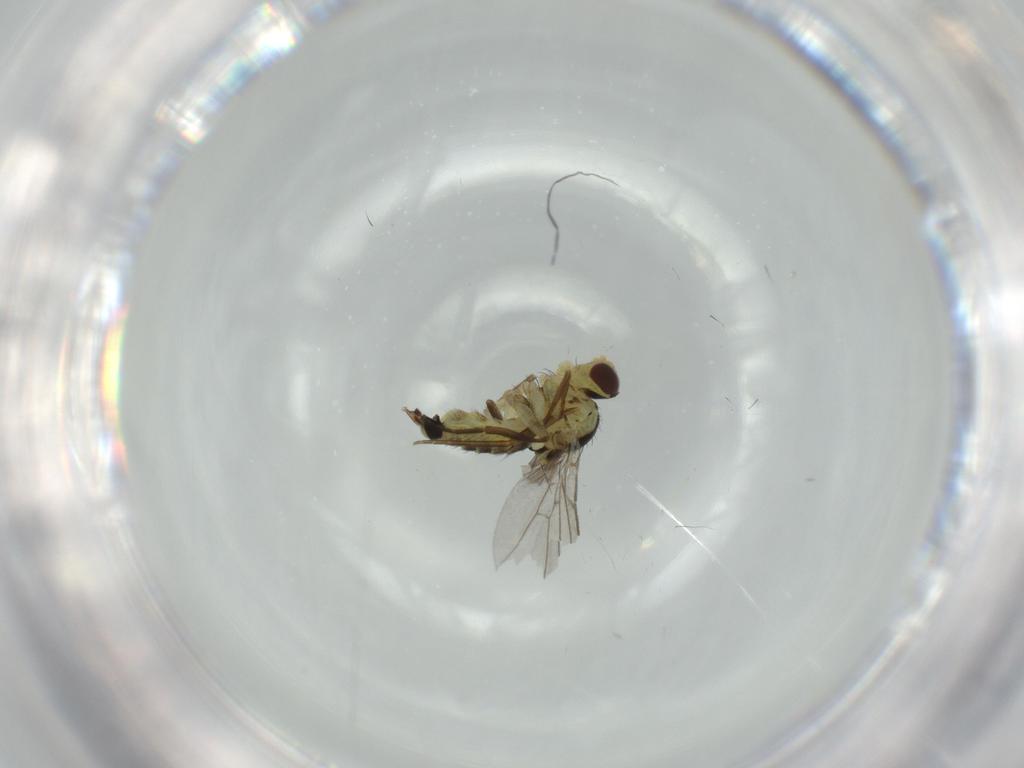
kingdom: Animalia
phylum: Arthropoda
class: Insecta
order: Diptera
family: Agromyzidae
